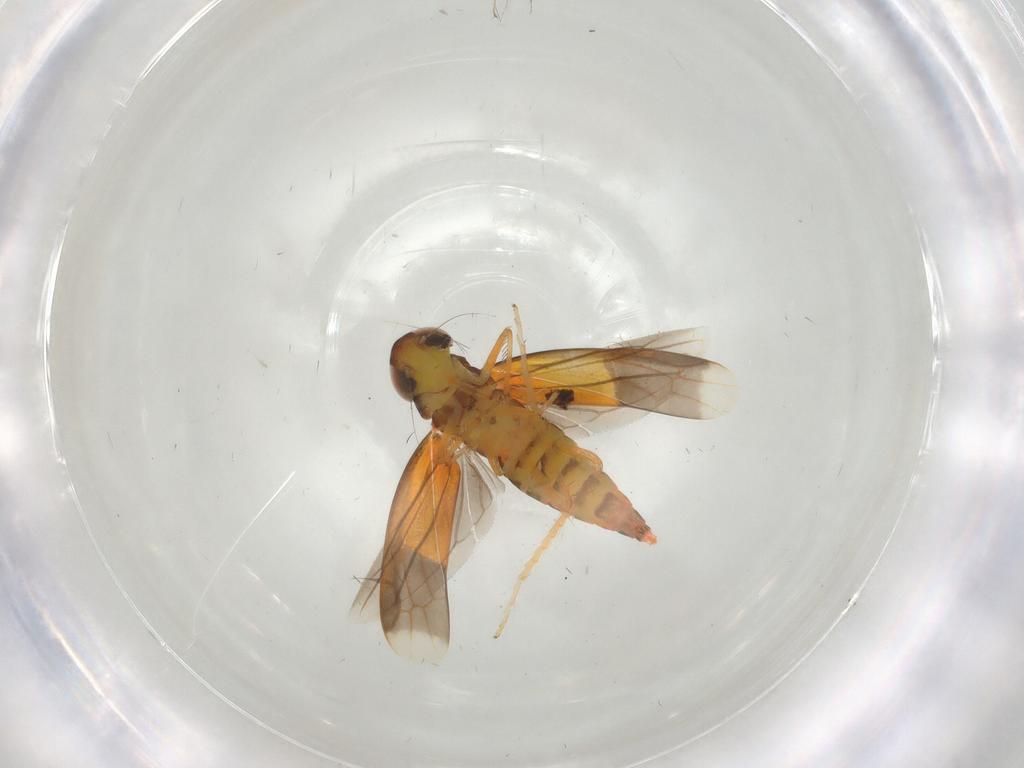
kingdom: Animalia
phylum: Arthropoda
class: Insecta
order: Hemiptera
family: Cicadellidae
